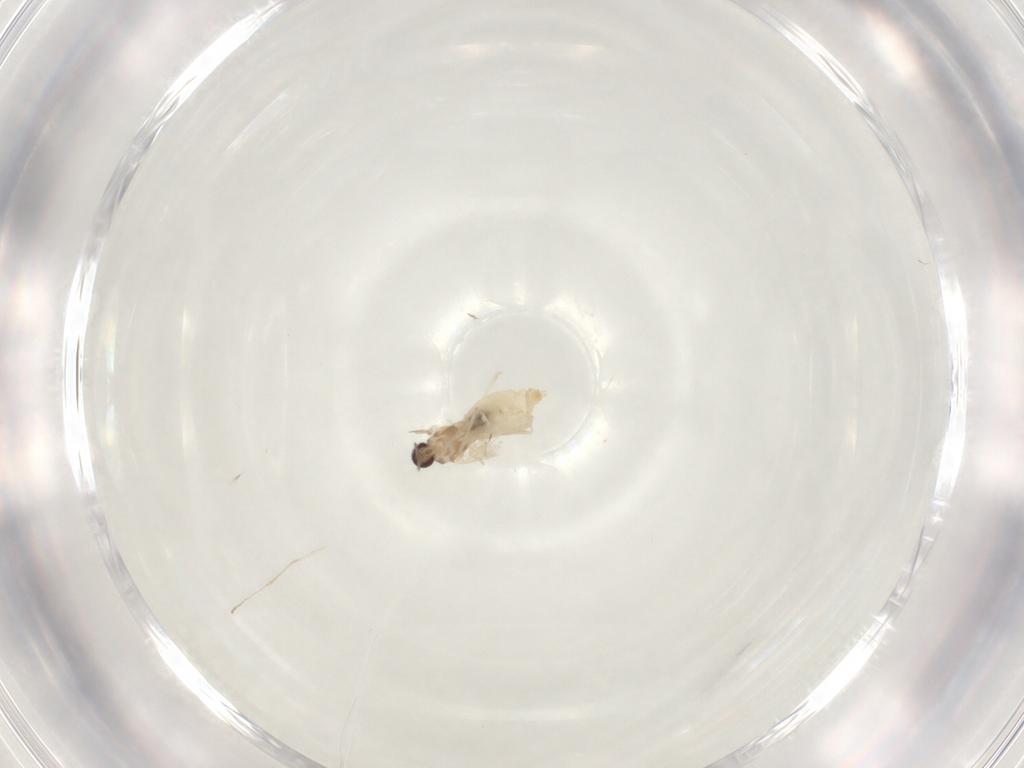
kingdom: Animalia
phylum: Arthropoda
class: Insecta
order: Diptera
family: Cecidomyiidae
